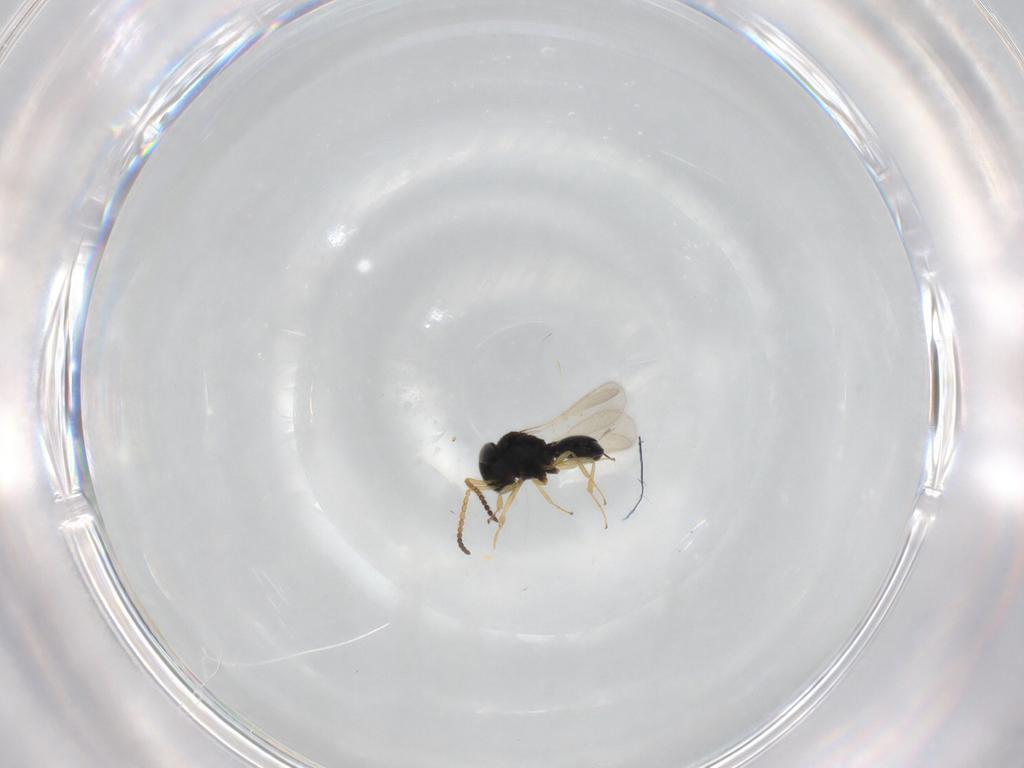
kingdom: Animalia
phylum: Arthropoda
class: Insecta
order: Hymenoptera
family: Scelionidae
